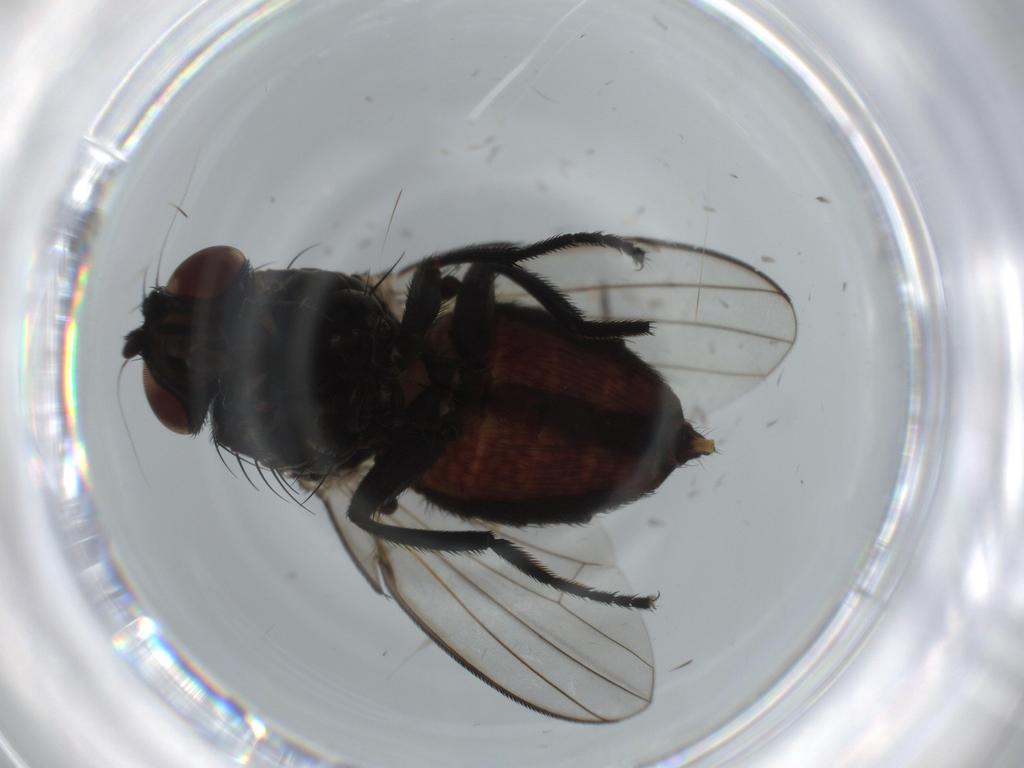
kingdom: Animalia
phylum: Arthropoda
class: Insecta
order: Diptera
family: Milichiidae
